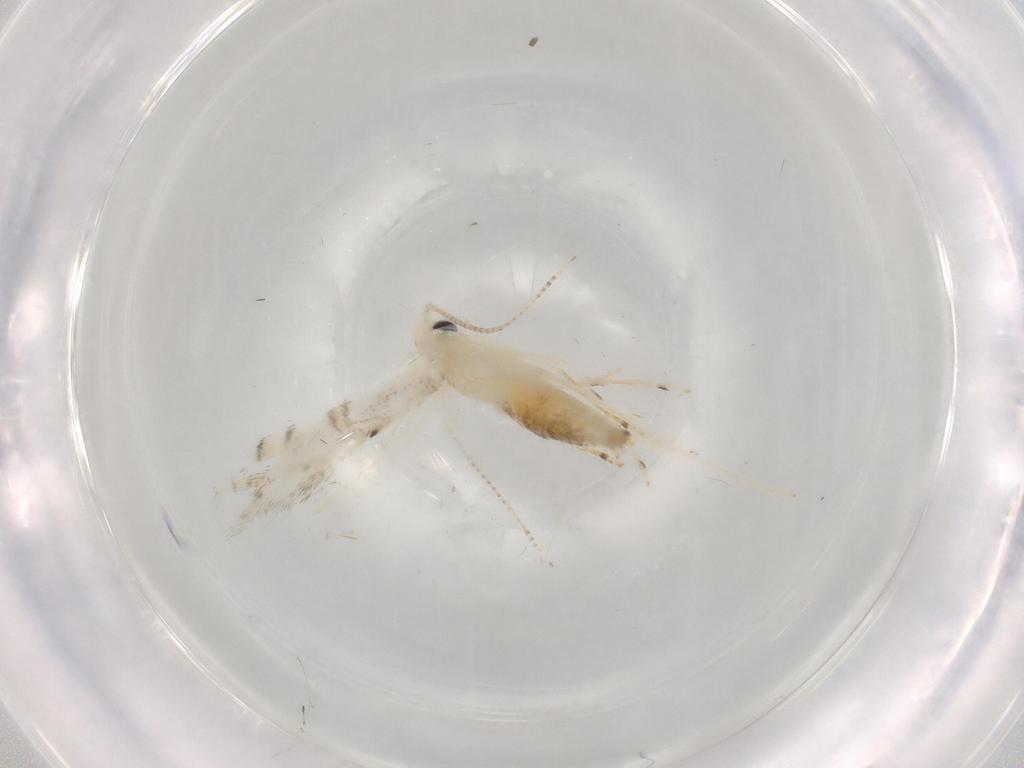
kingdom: Animalia
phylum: Arthropoda
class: Insecta
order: Lepidoptera
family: Gracillariidae
